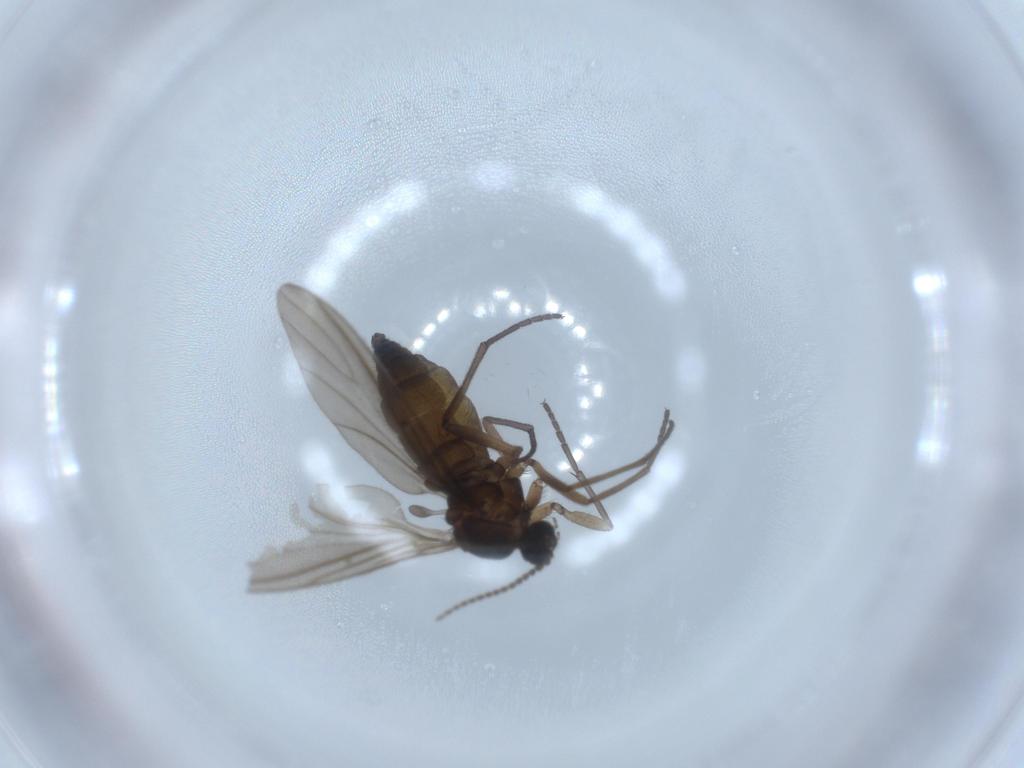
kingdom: Animalia
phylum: Arthropoda
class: Insecta
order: Diptera
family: Sciaridae
